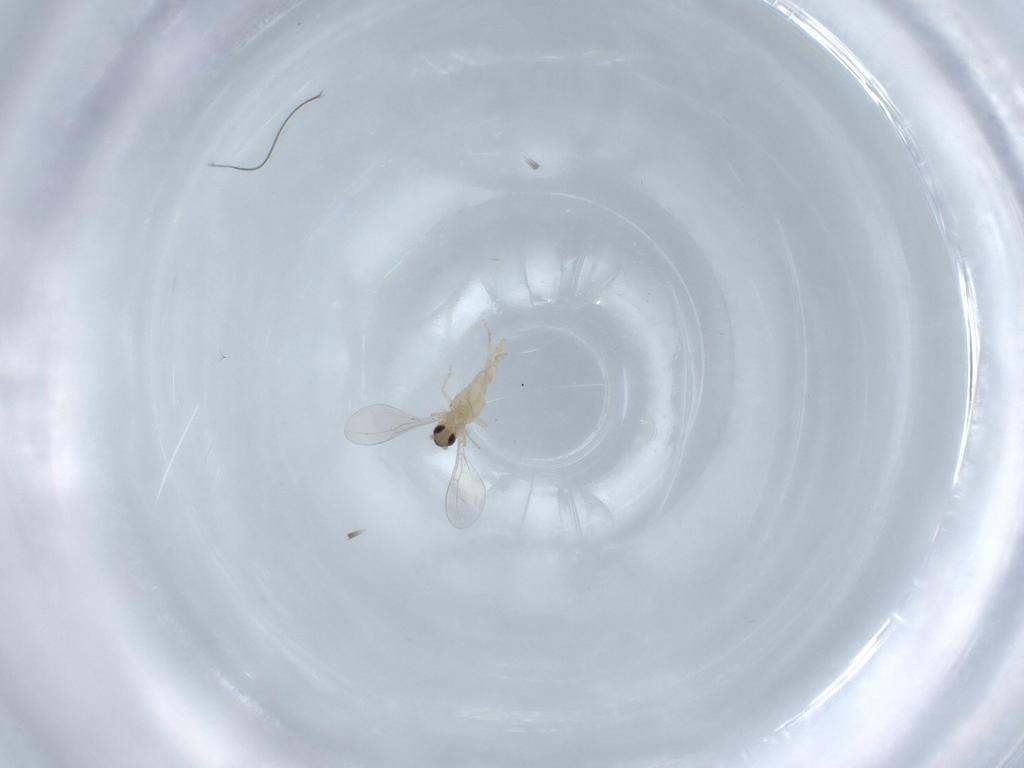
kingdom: Animalia
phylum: Arthropoda
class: Insecta
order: Diptera
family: Cecidomyiidae
